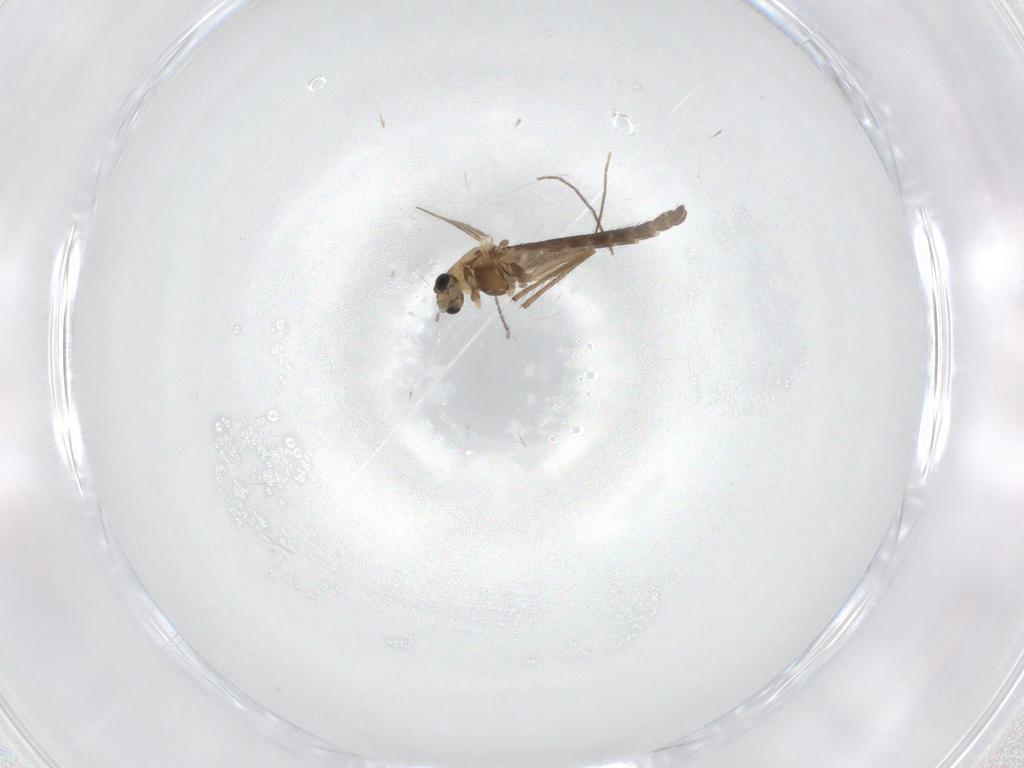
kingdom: Animalia
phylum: Arthropoda
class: Insecta
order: Diptera
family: Chironomidae
